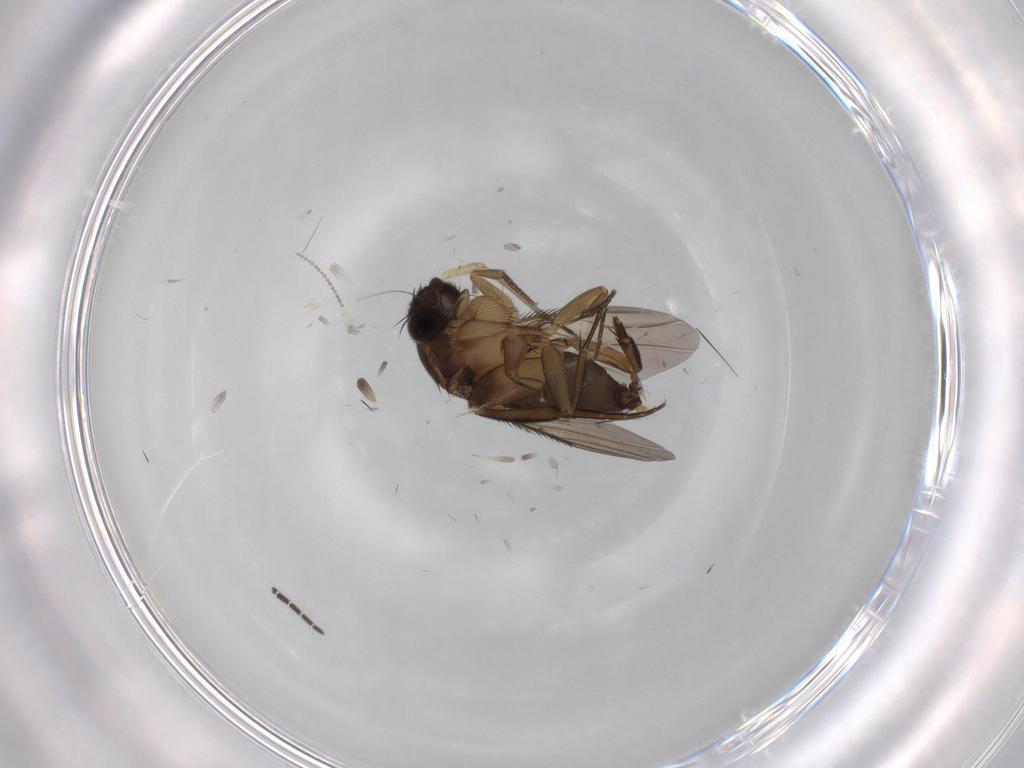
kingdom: Animalia
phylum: Arthropoda
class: Insecta
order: Diptera
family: Phoridae
